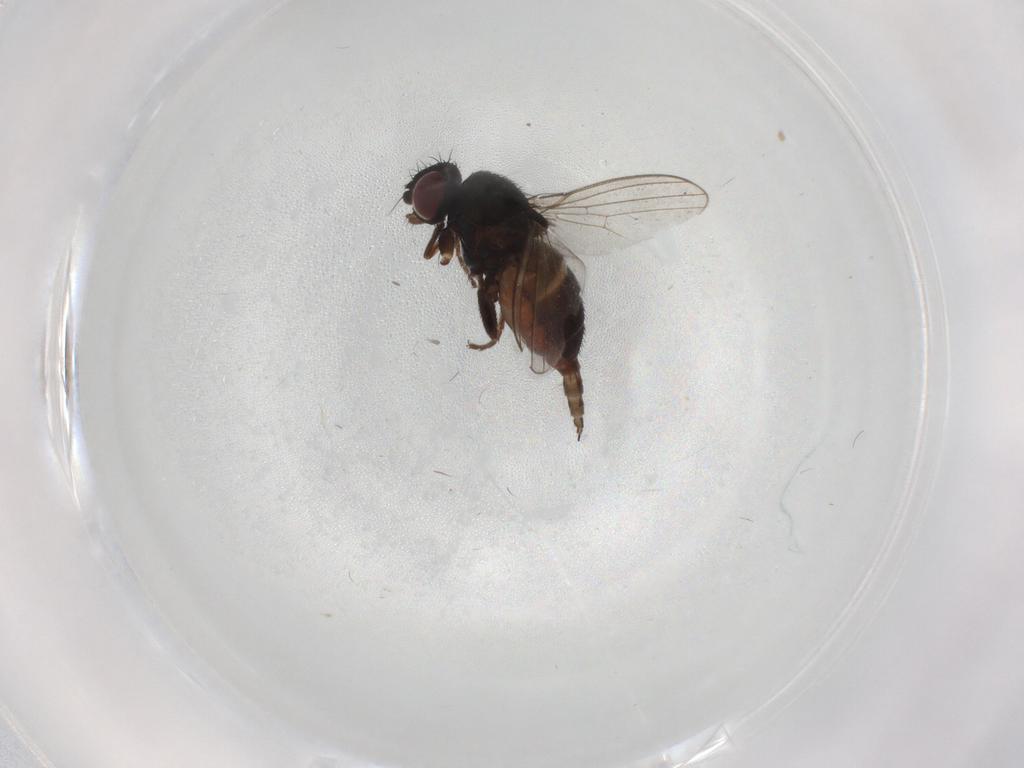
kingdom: Animalia
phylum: Arthropoda
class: Insecta
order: Diptera
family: Milichiidae
